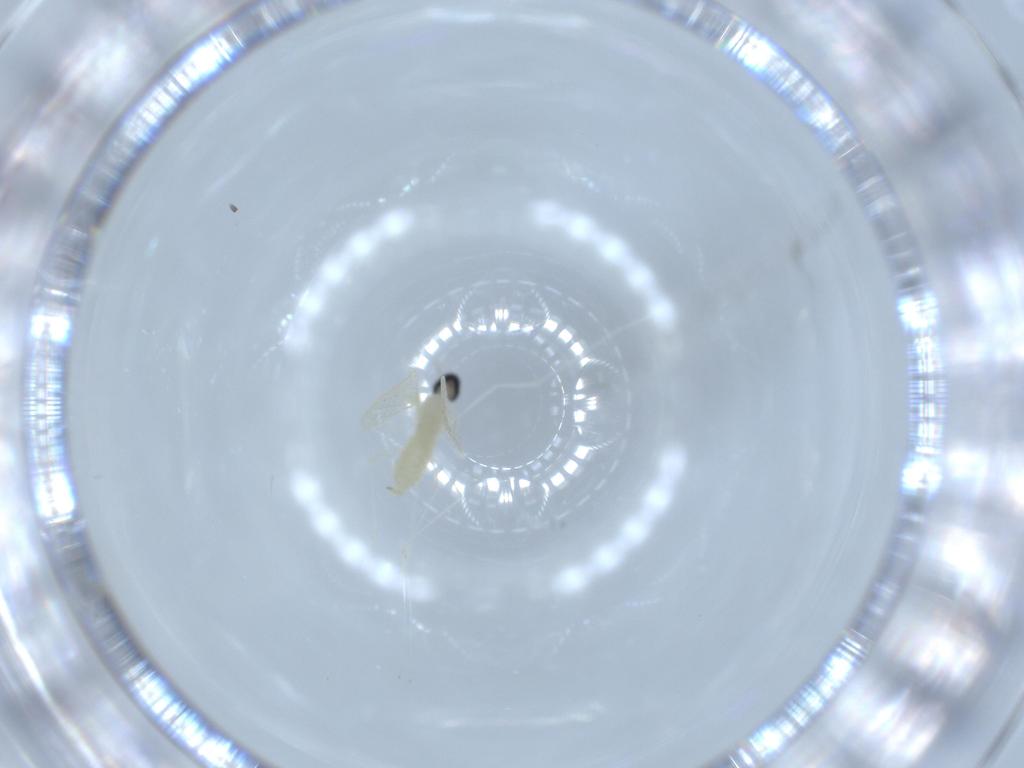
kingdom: Animalia
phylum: Arthropoda
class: Insecta
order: Diptera
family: Cecidomyiidae
